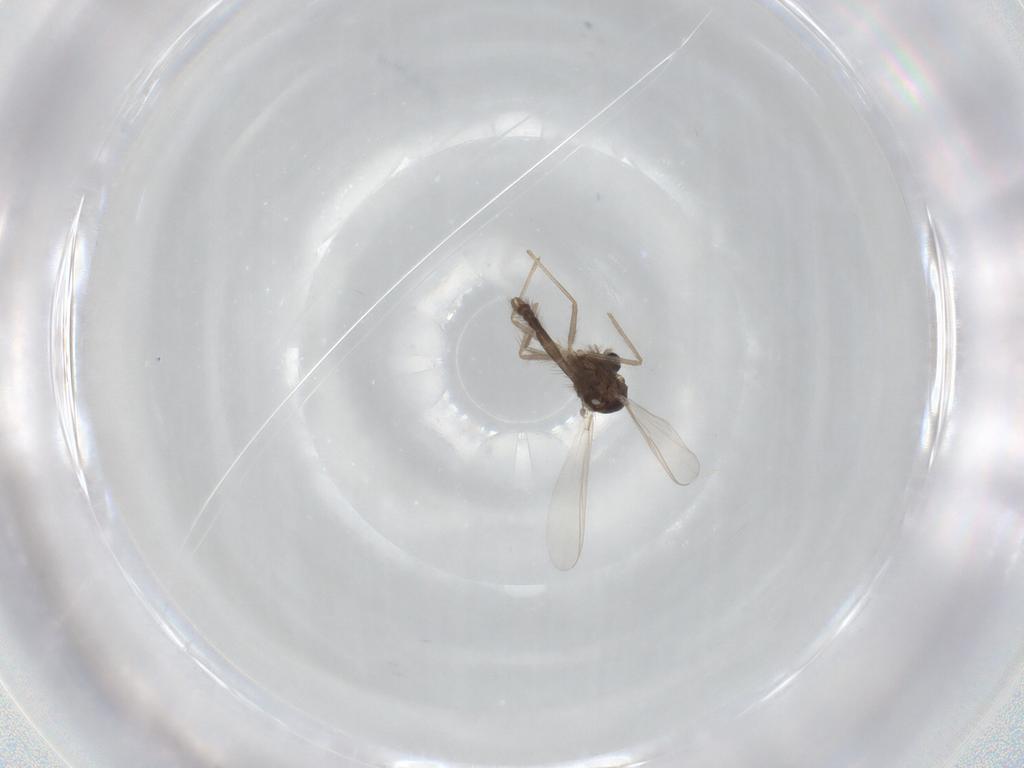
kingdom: Animalia
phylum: Arthropoda
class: Insecta
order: Diptera
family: Chironomidae
